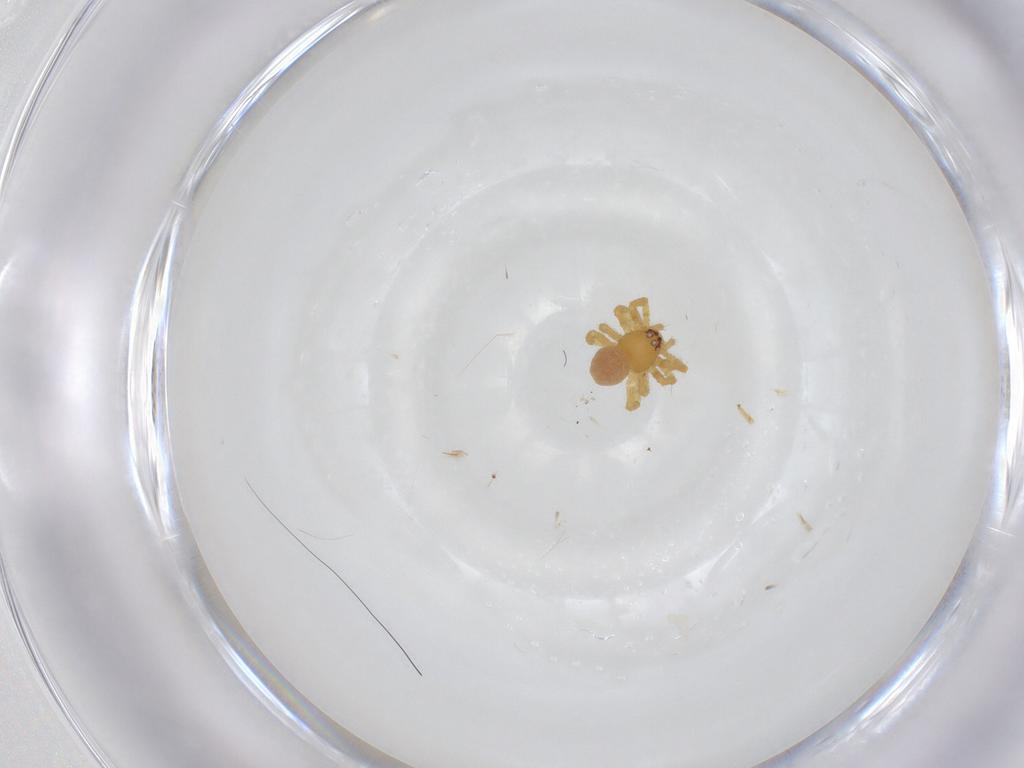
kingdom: Animalia
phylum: Arthropoda
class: Arachnida
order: Araneae
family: Theridiidae
